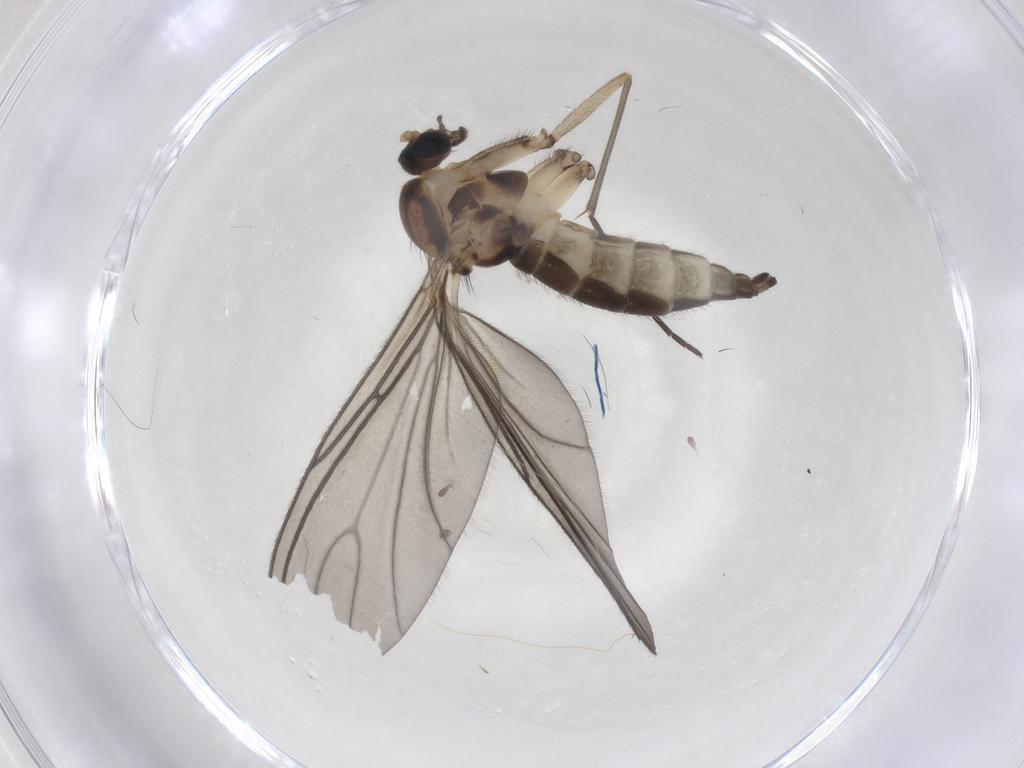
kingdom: Animalia
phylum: Arthropoda
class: Insecta
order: Diptera
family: Sciaridae
